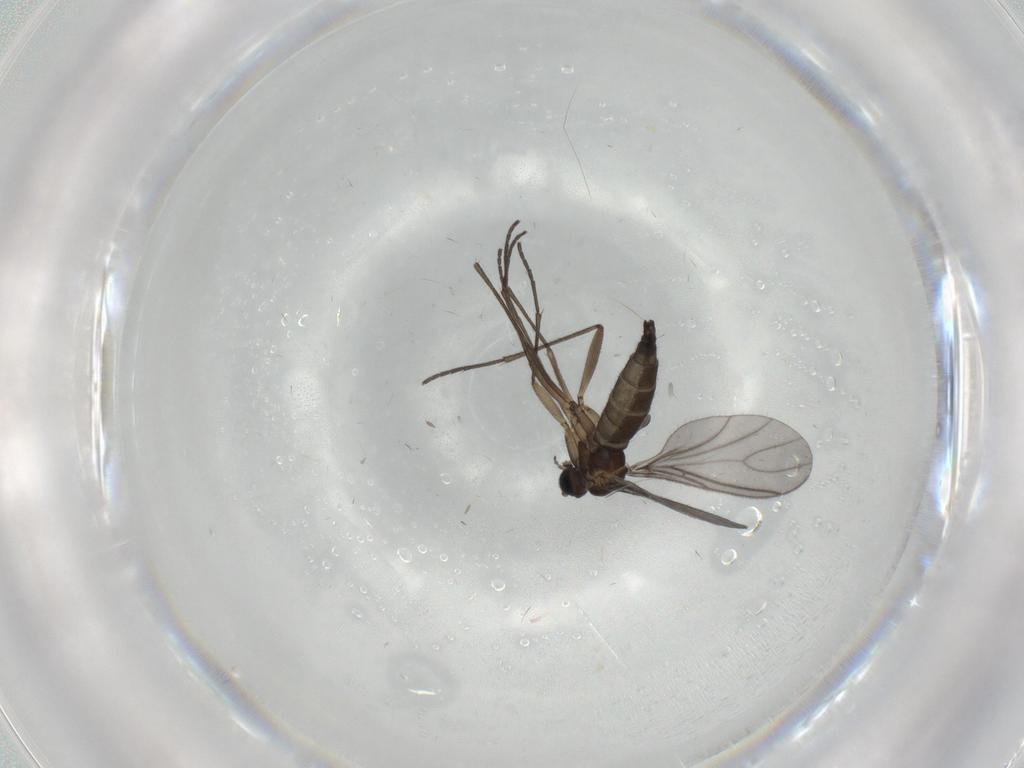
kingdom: Animalia
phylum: Arthropoda
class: Insecta
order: Diptera
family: Sciaridae
